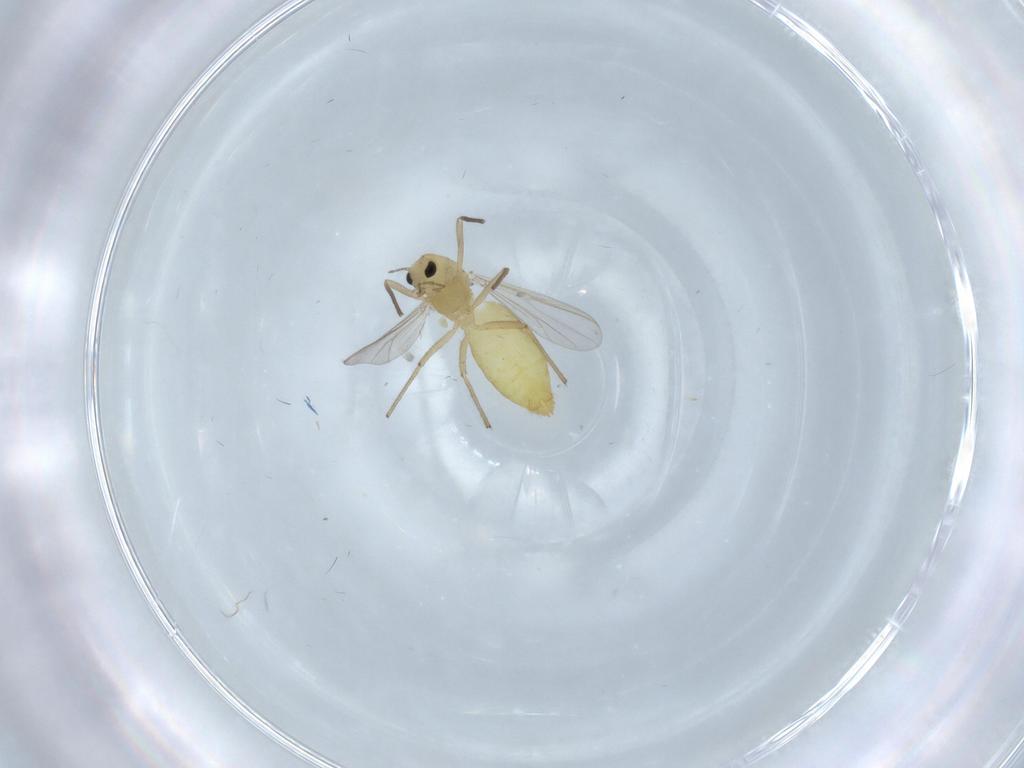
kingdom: Animalia
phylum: Arthropoda
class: Insecta
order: Diptera
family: Chironomidae
